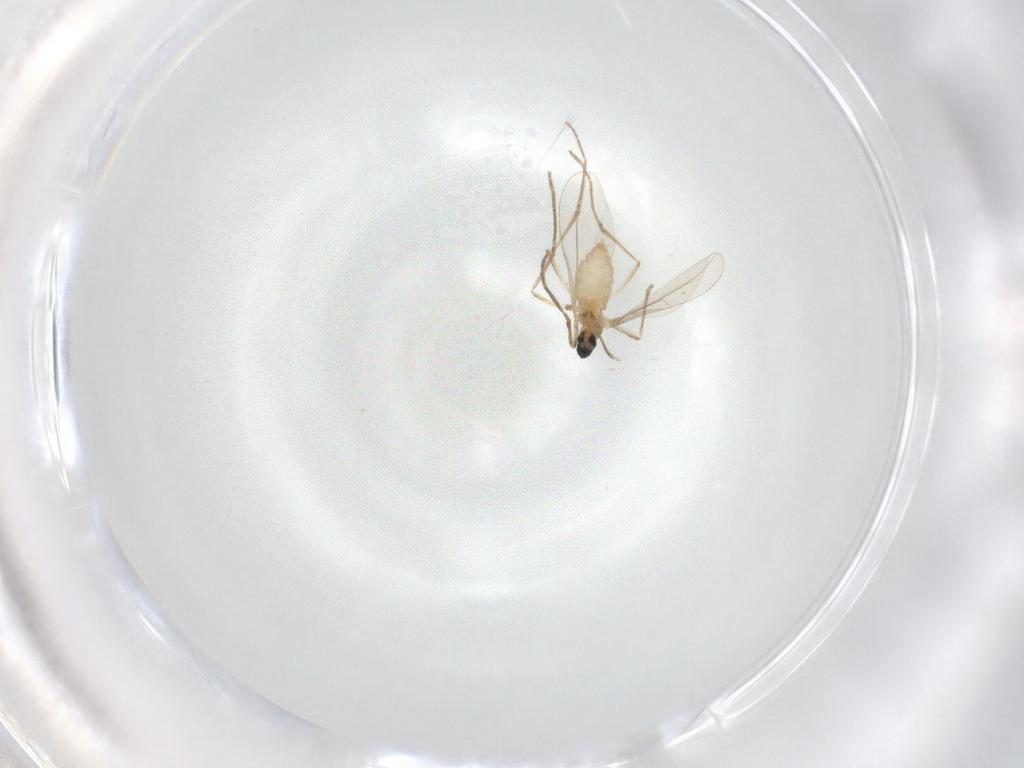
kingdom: Animalia
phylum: Arthropoda
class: Insecta
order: Diptera
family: Cecidomyiidae
